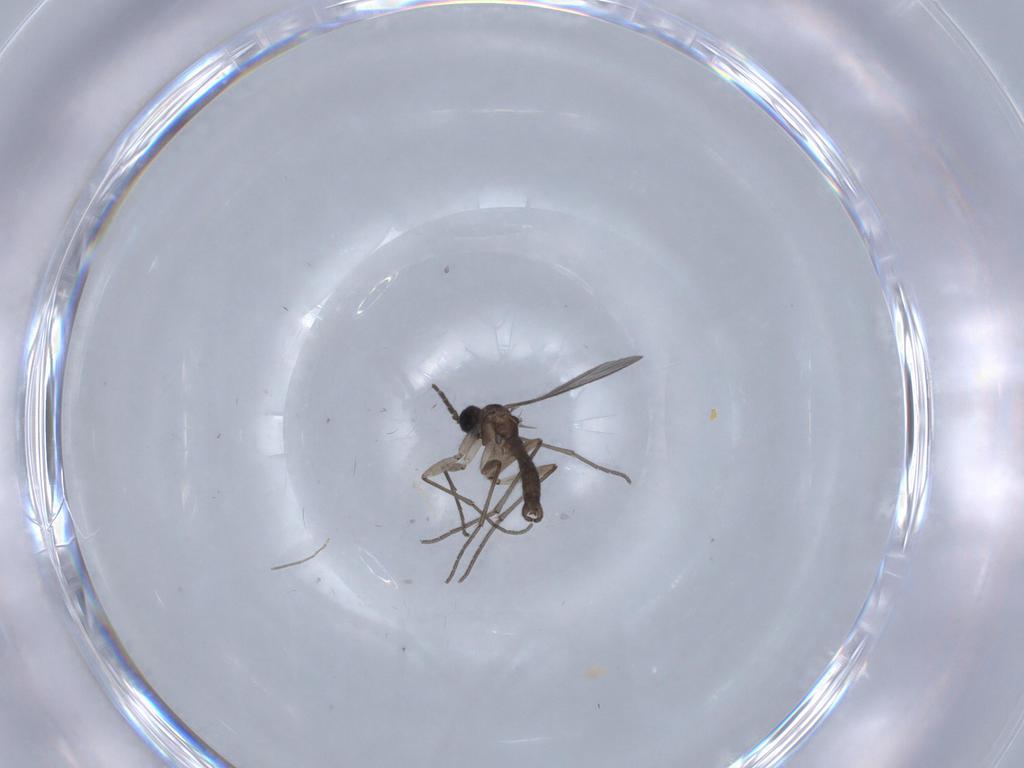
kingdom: Animalia
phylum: Arthropoda
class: Insecta
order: Diptera
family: Sciaridae
